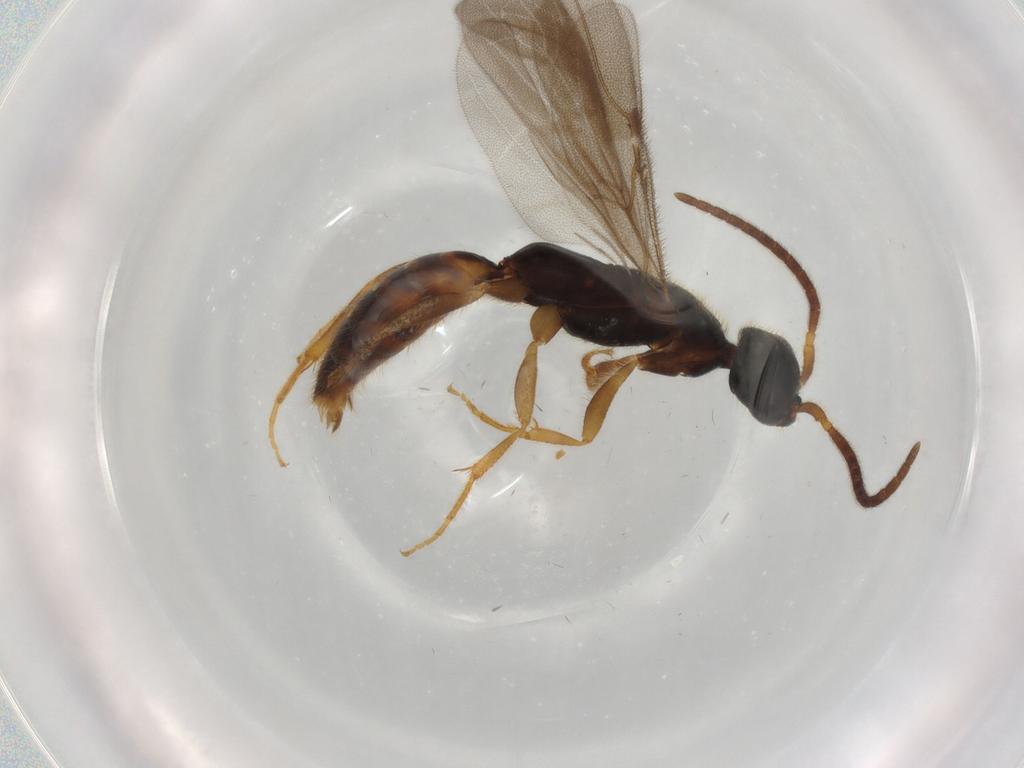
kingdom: Animalia
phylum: Arthropoda
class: Insecta
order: Hymenoptera
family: Bethylidae
